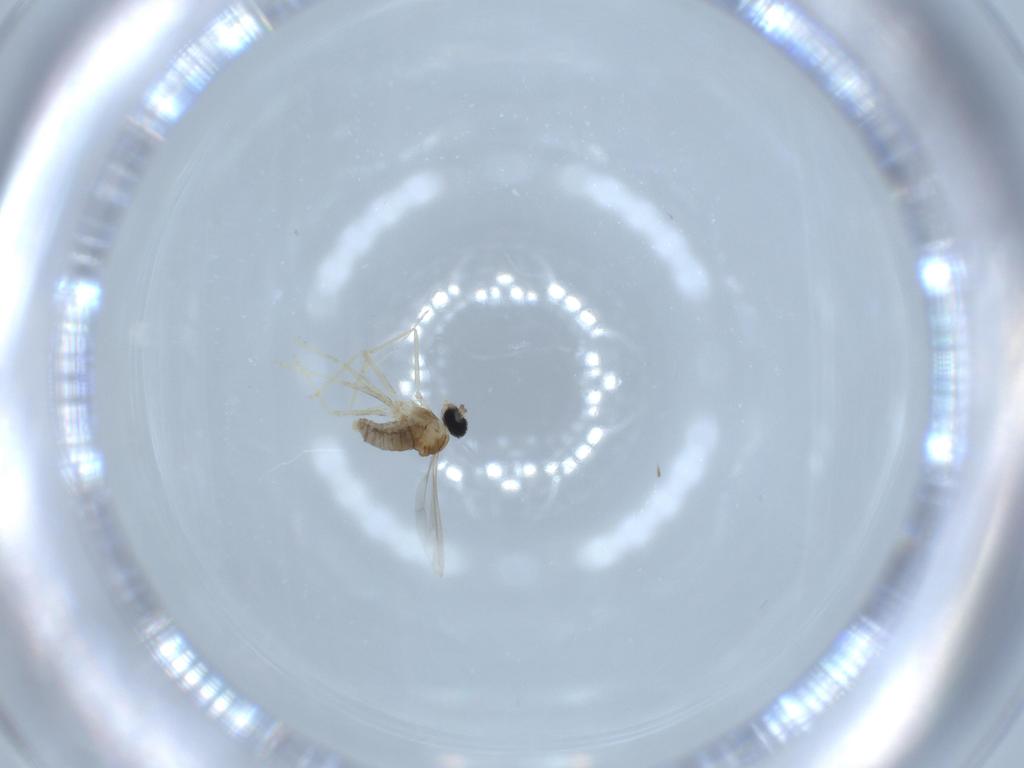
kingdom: Animalia
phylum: Arthropoda
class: Insecta
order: Diptera
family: Cecidomyiidae
